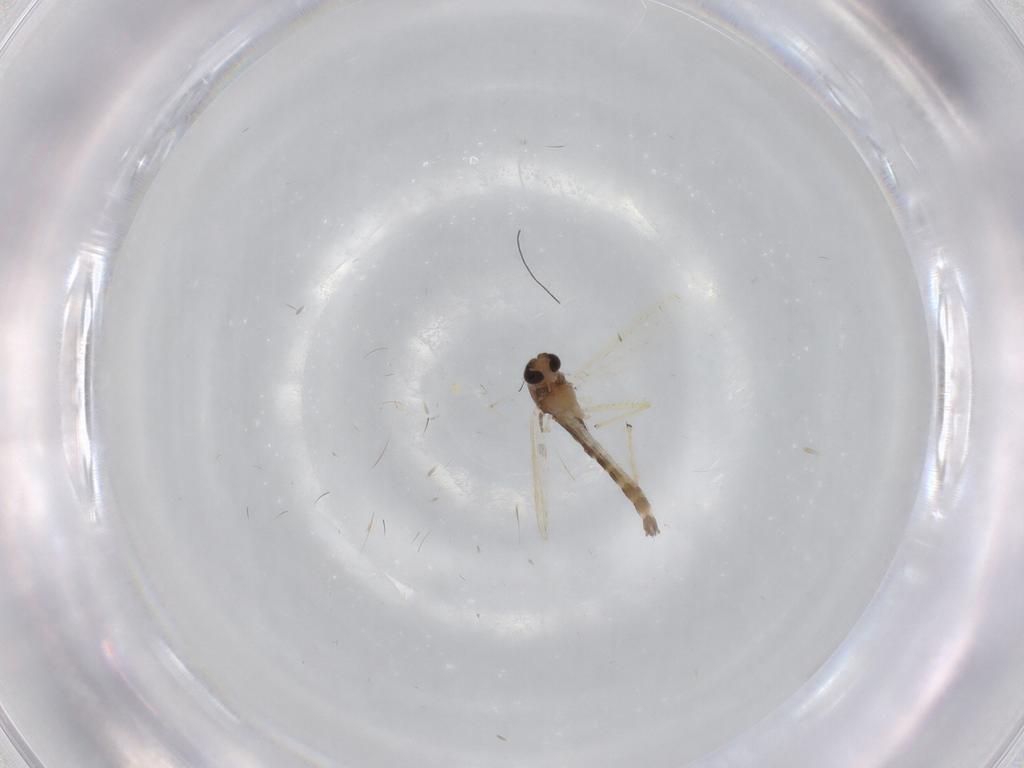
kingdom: Animalia
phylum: Arthropoda
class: Insecta
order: Diptera
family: Chironomidae
